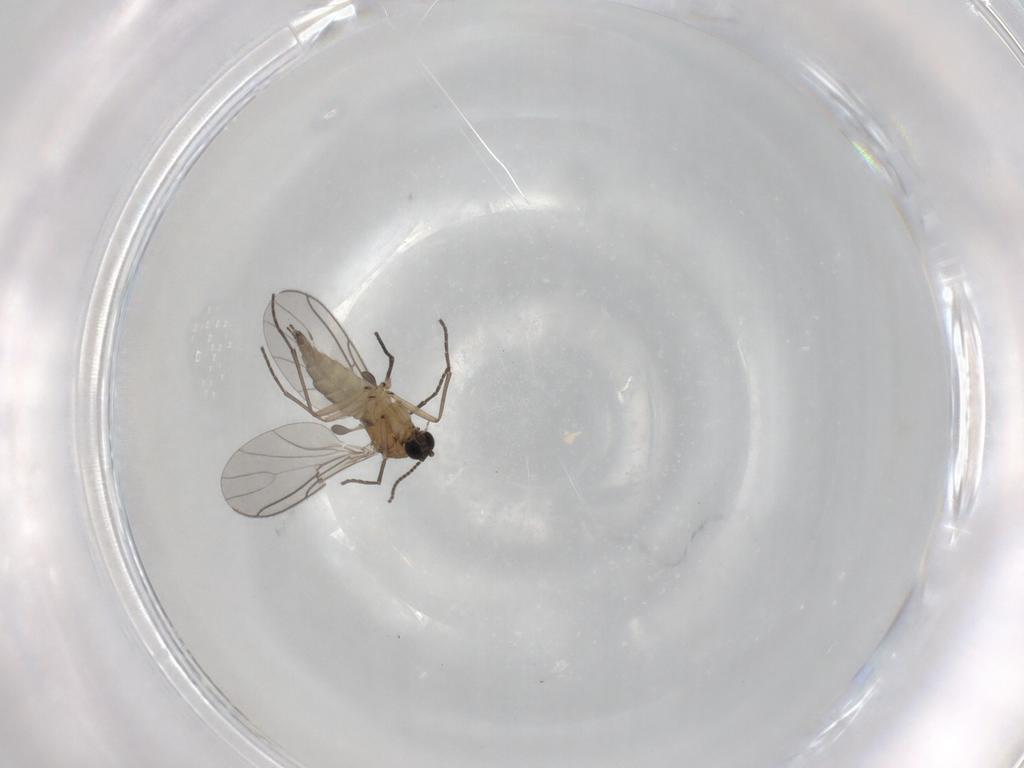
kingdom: Animalia
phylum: Arthropoda
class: Insecta
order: Diptera
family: Sciaridae
